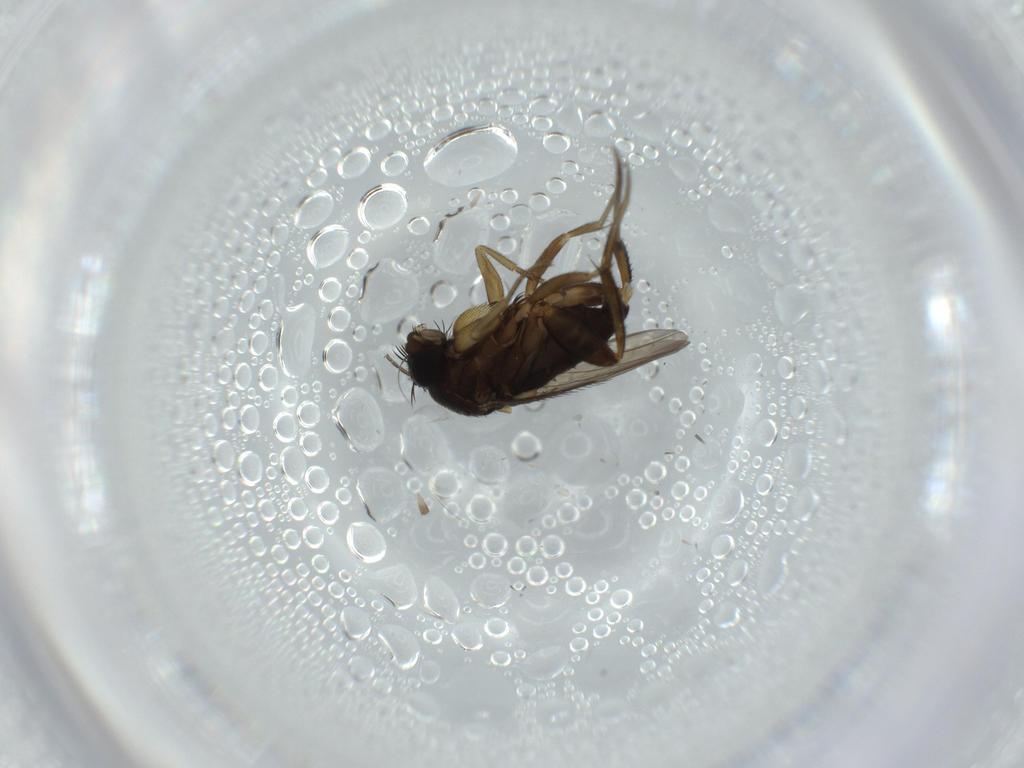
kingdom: Animalia
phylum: Arthropoda
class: Insecta
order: Diptera
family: Phoridae
